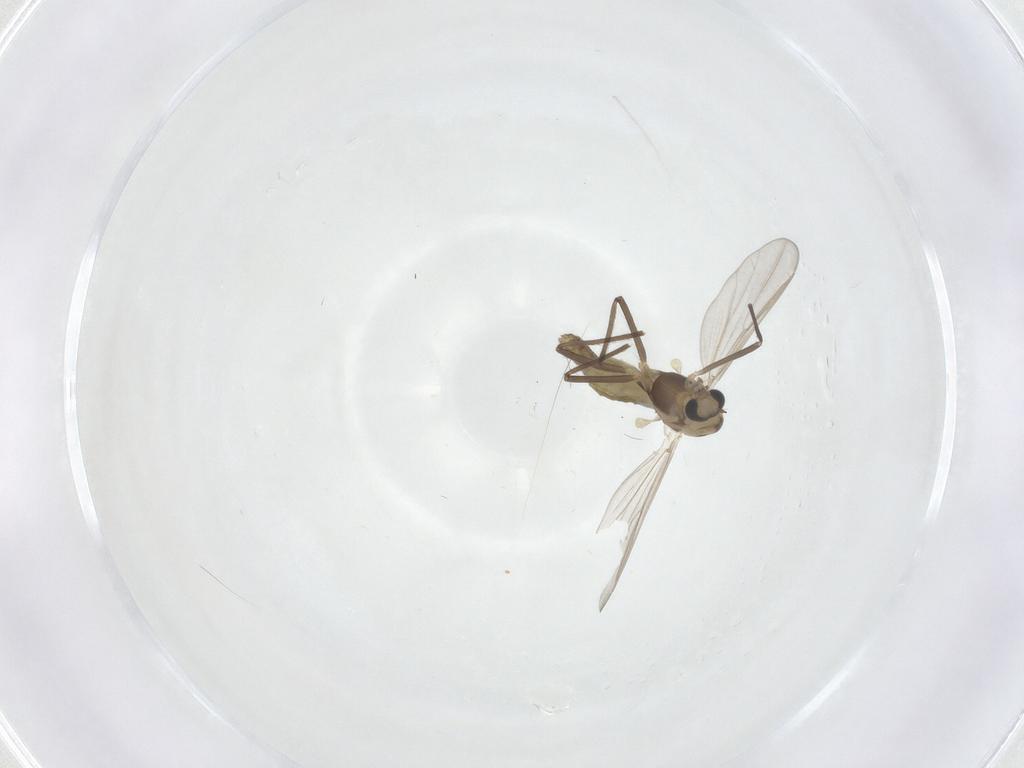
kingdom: Animalia
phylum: Arthropoda
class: Insecta
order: Diptera
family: Chironomidae
